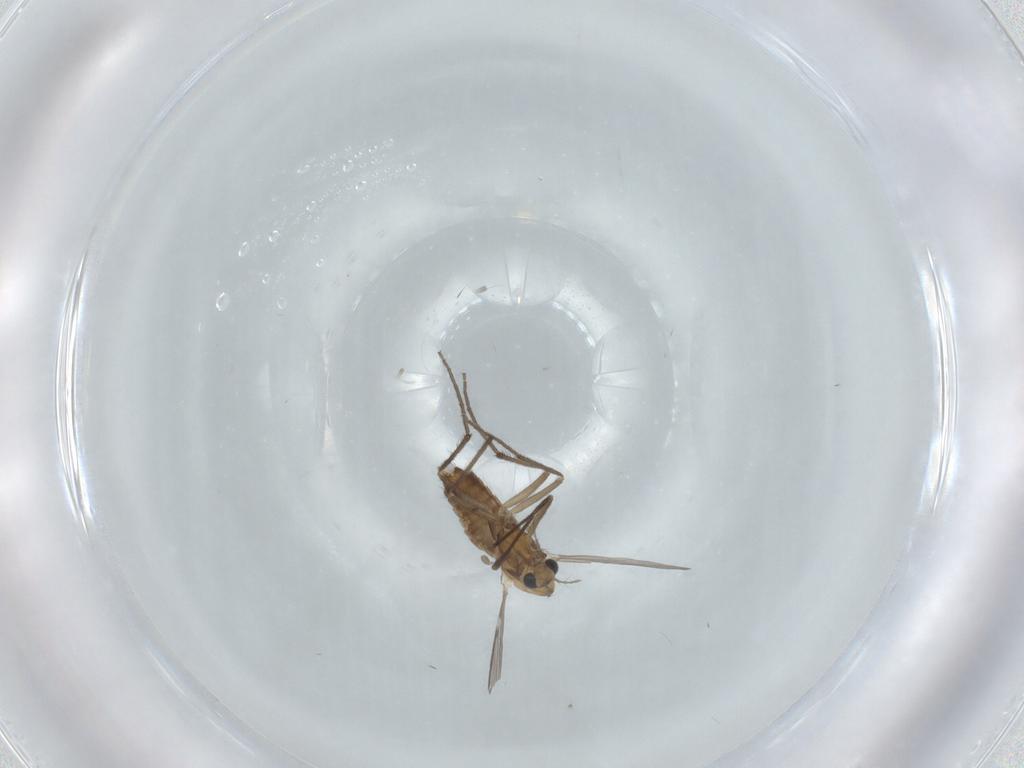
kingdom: Animalia
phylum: Arthropoda
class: Insecta
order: Diptera
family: Chironomidae
